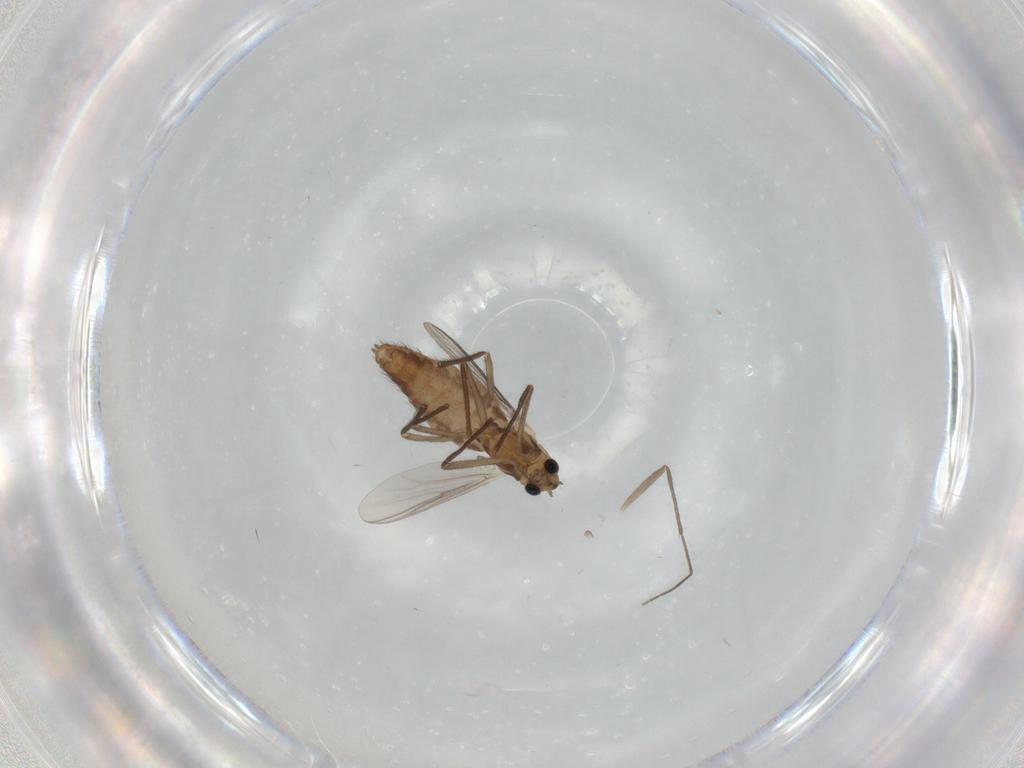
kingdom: Animalia
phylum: Arthropoda
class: Insecta
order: Diptera
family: Chironomidae
